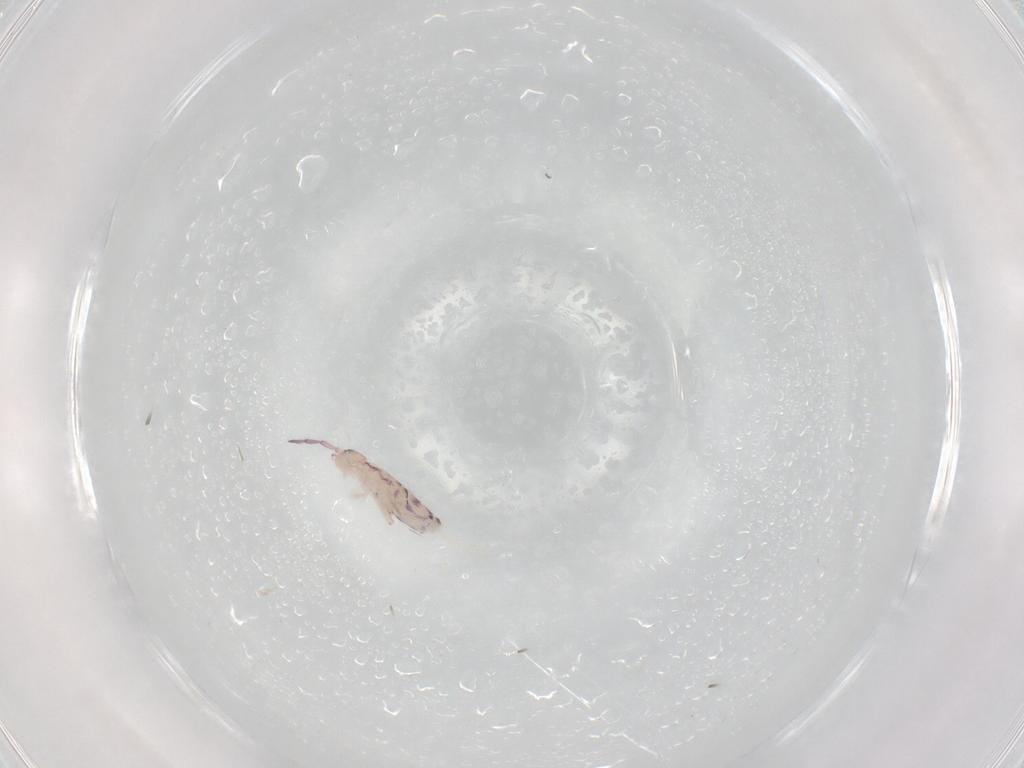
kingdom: Animalia
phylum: Arthropoda
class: Collembola
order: Entomobryomorpha
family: Entomobryidae
